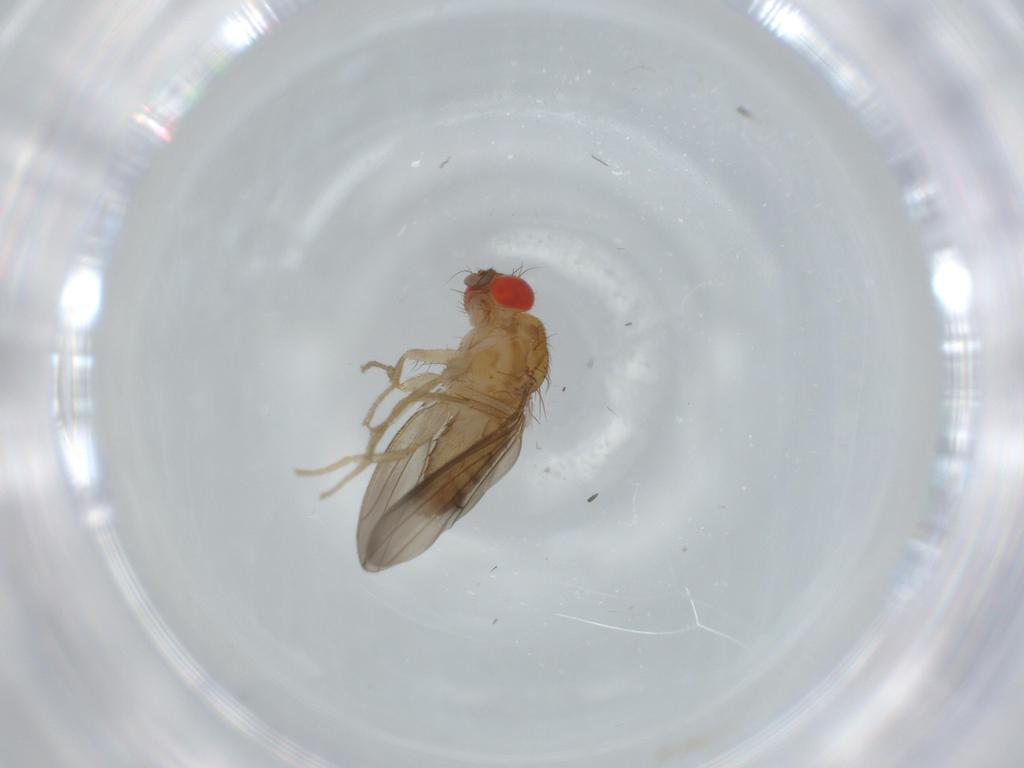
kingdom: Animalia
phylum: Arthropoda
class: Insecta
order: Diptera
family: Drosophilidae
